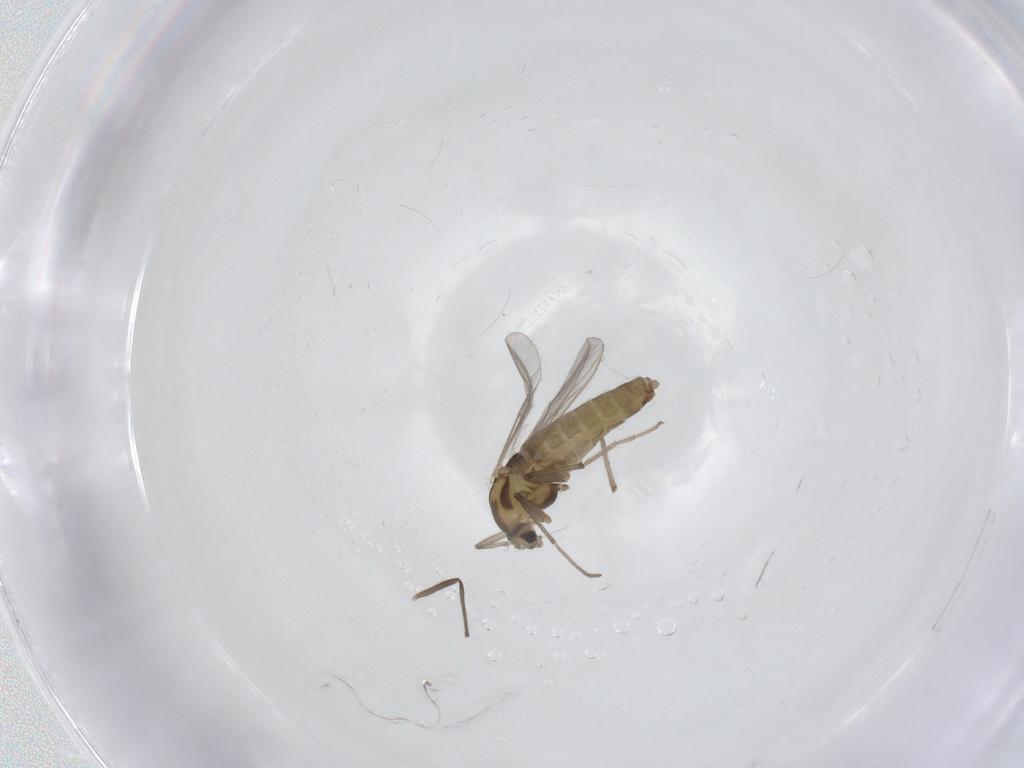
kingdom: Animalia
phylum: Arthropoda
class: Insecta
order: Diptera
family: Chironomidae
